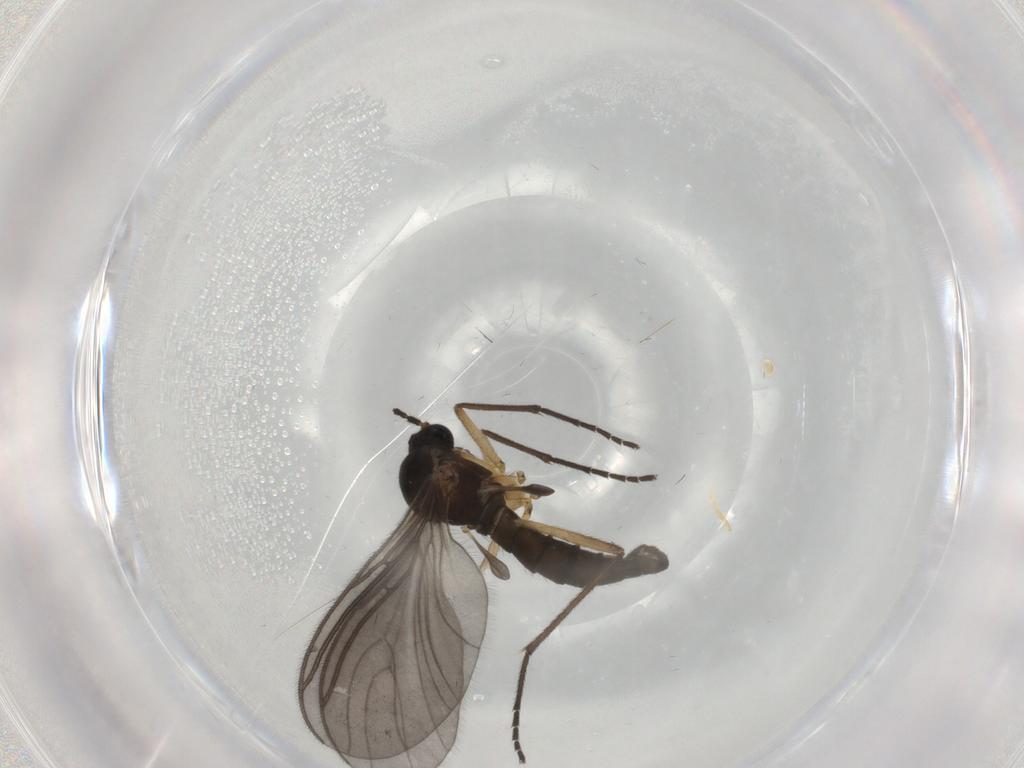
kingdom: Animalia
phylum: Arthropoda
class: Insecta
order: Diptera
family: Sciaridae
